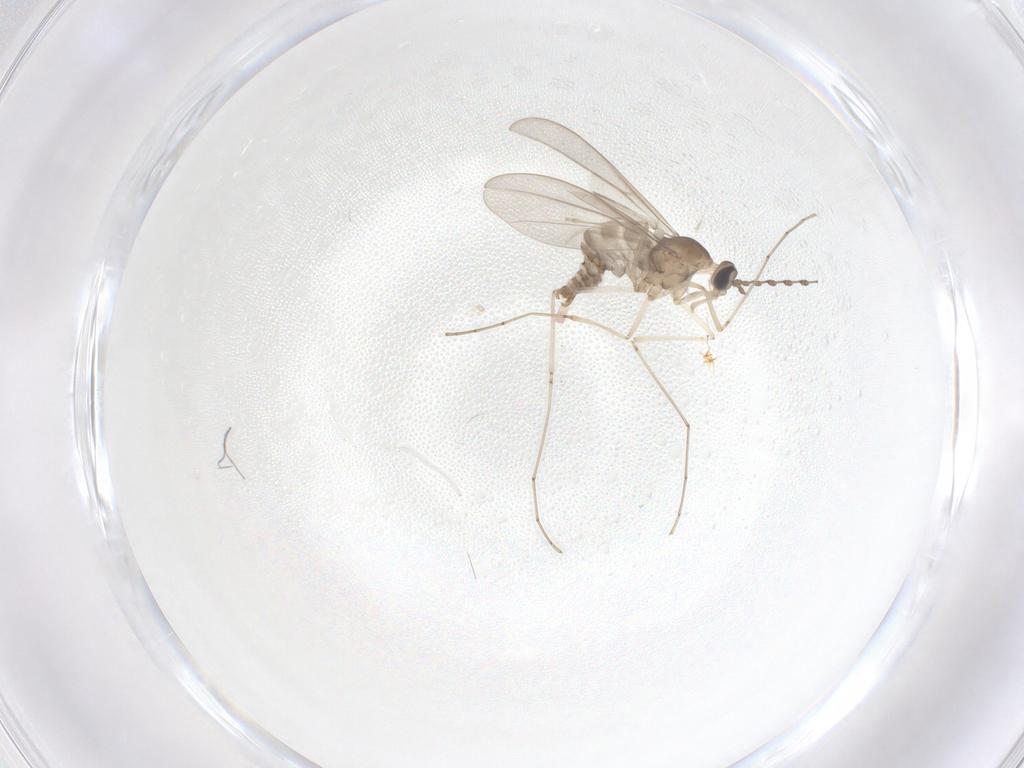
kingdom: Animalia
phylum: Arthropoda
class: Insecta
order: Diptera
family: Cecidomyiidae
